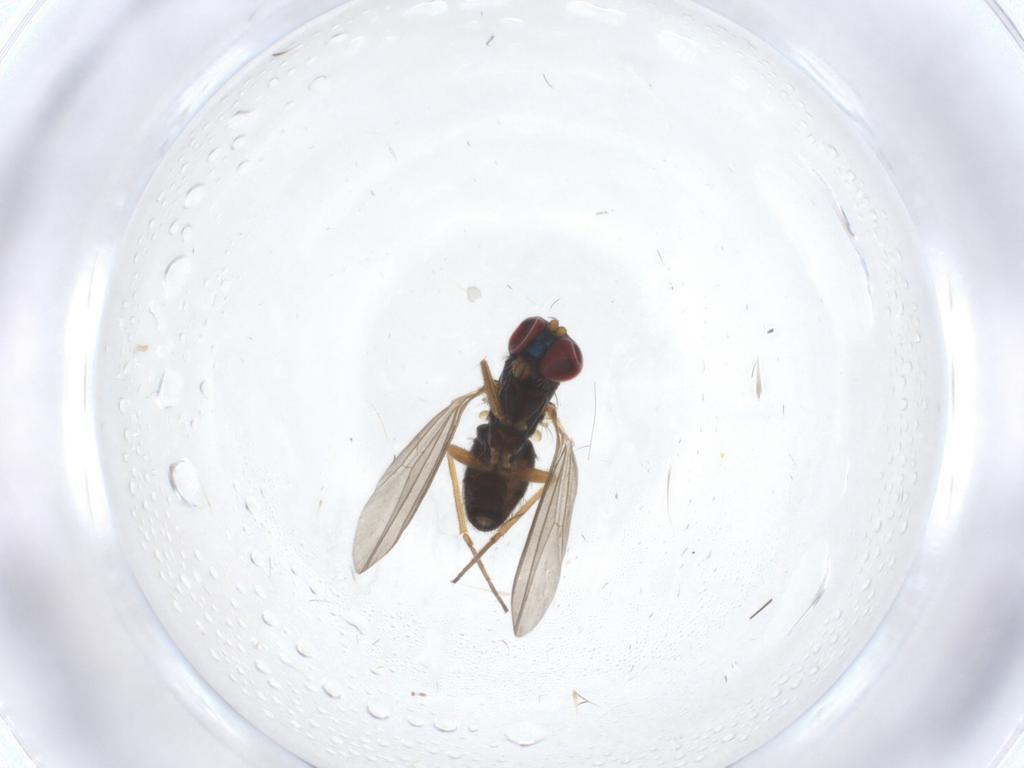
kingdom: Animalia
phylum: Arthropoda
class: Insecta
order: Diptera
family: Dolichopodidae
